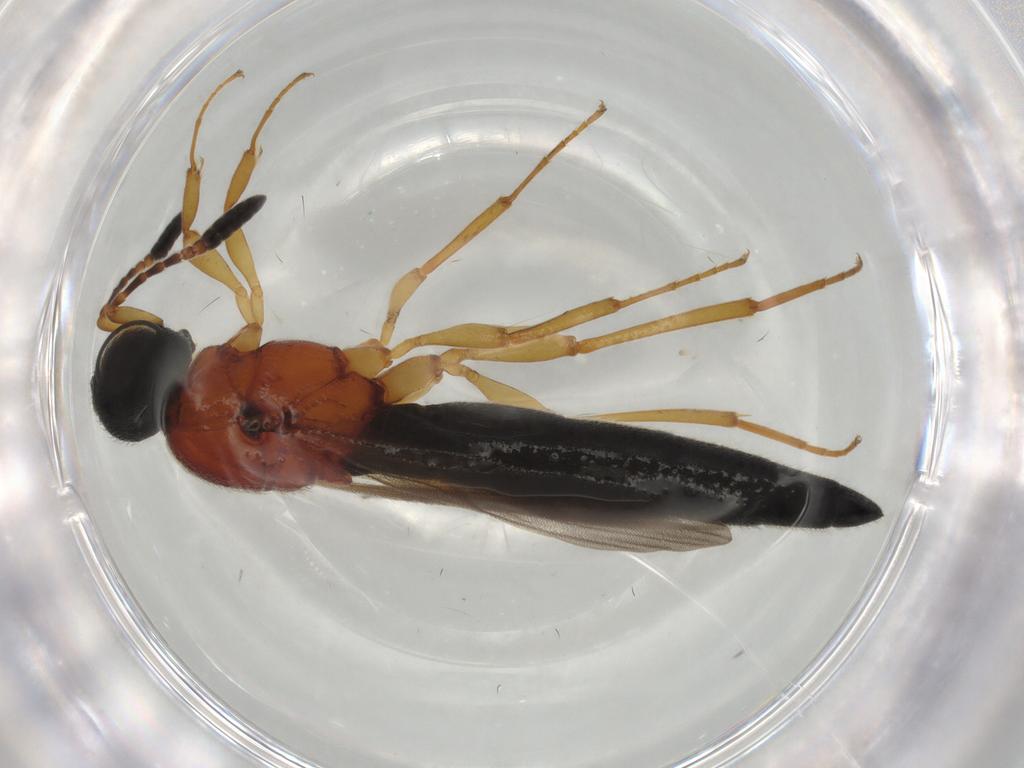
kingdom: Animalia
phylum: Arthropoda
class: Insecta
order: Hymenoptera
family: Scelionidae
